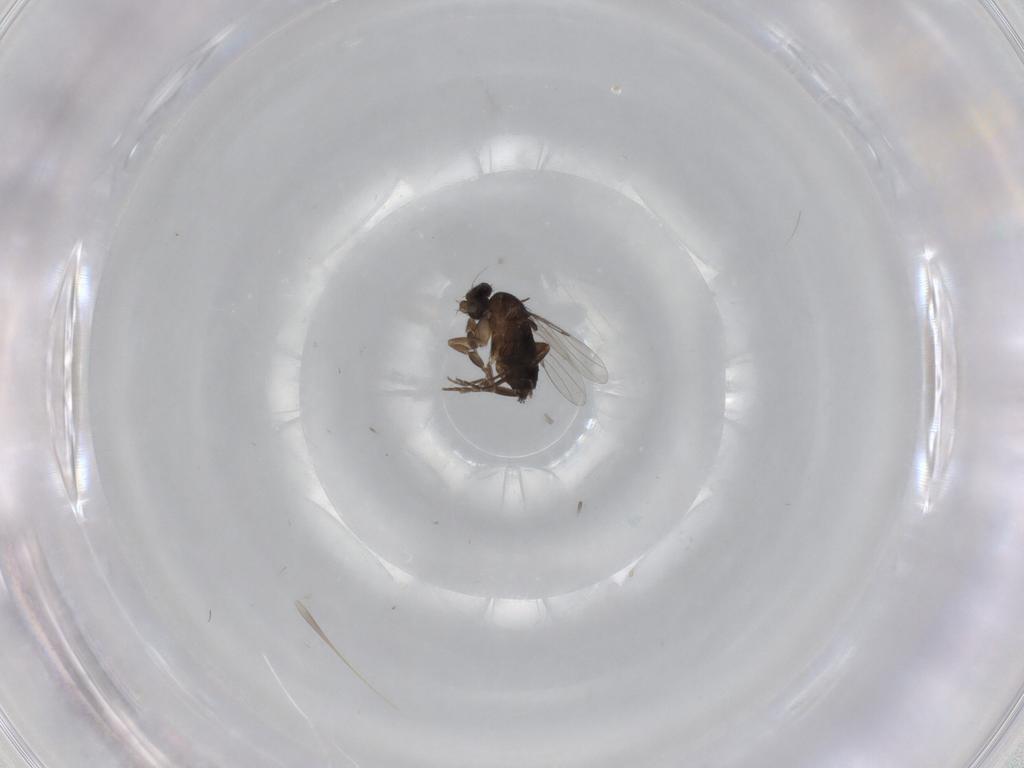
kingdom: Animalia
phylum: Arthropoda
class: Insecta
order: Diptera
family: Phoridae
